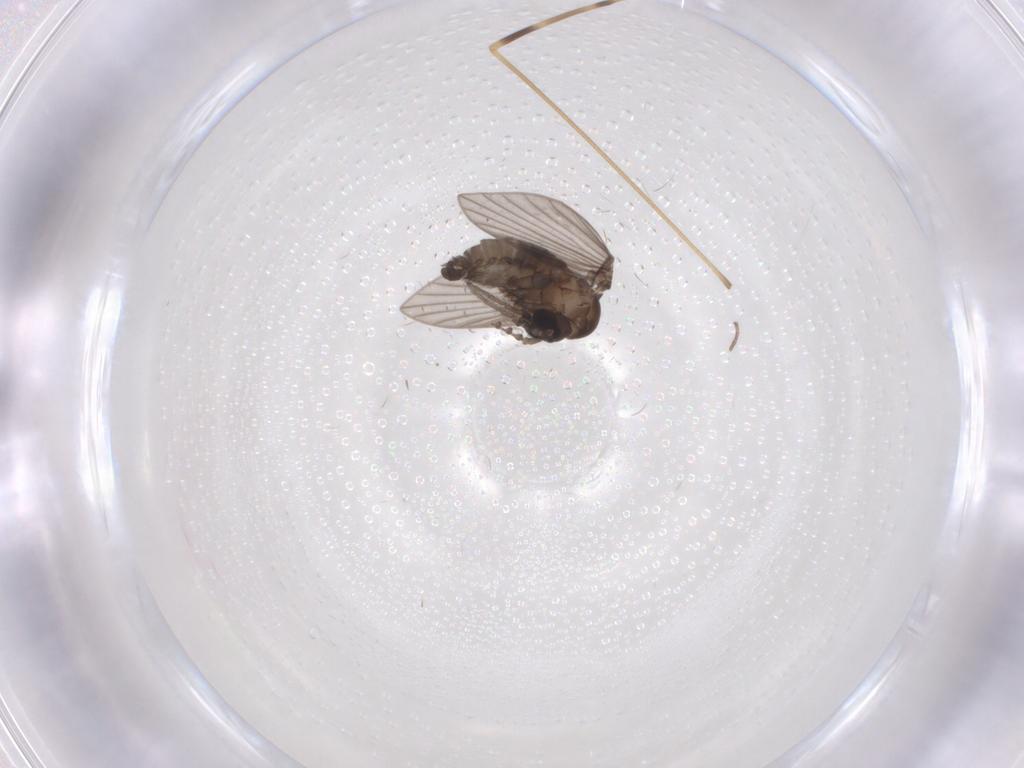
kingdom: Animalia
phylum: Arthropoda
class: Insecta
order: Diptera
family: Limoniidae
